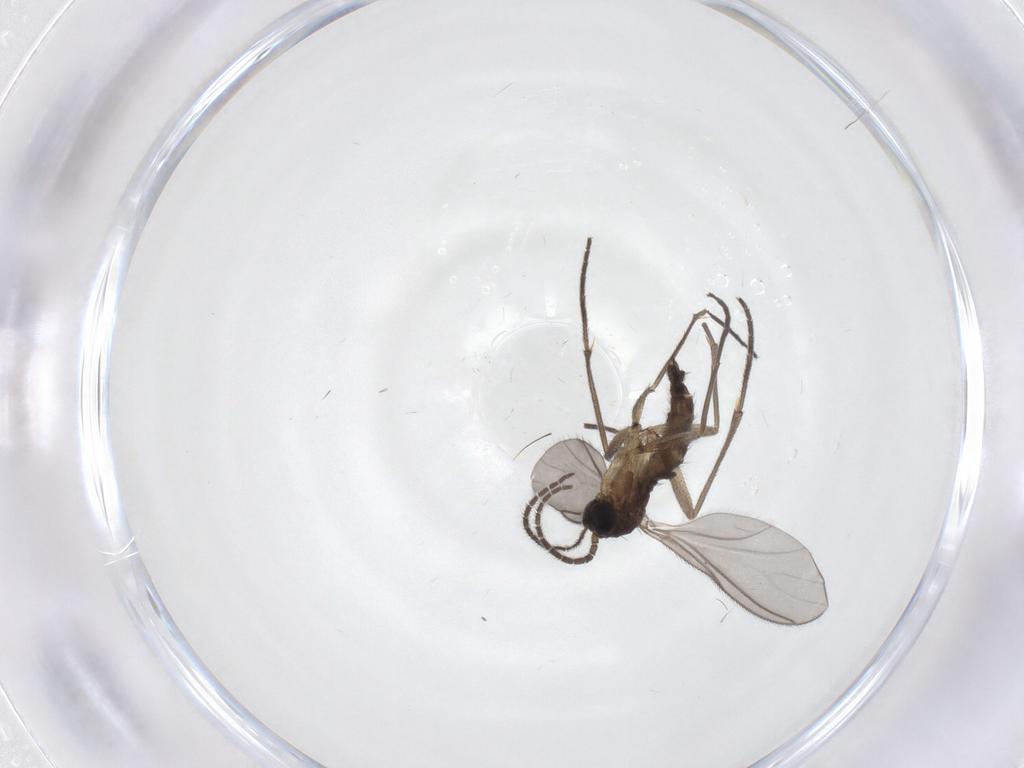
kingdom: Animalia
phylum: Arthropoda
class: Insecta
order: Diptera
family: Sciaridae
